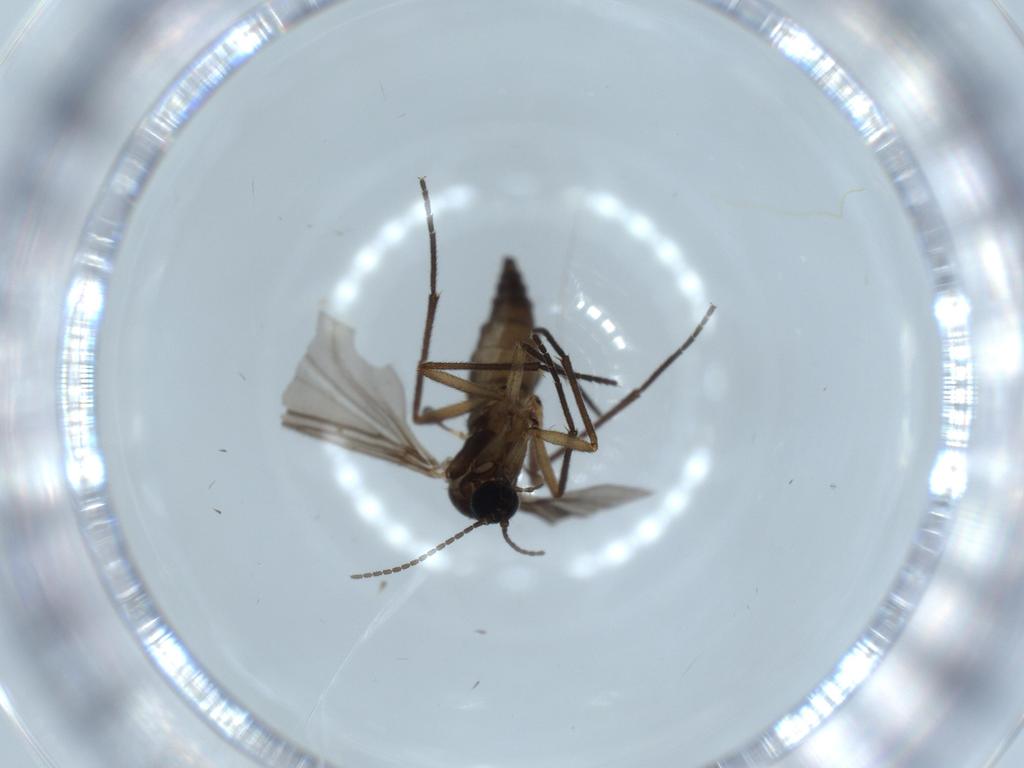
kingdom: Animalia
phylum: Arthropoda
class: Insecta
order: Diptera
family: Sciaridae
